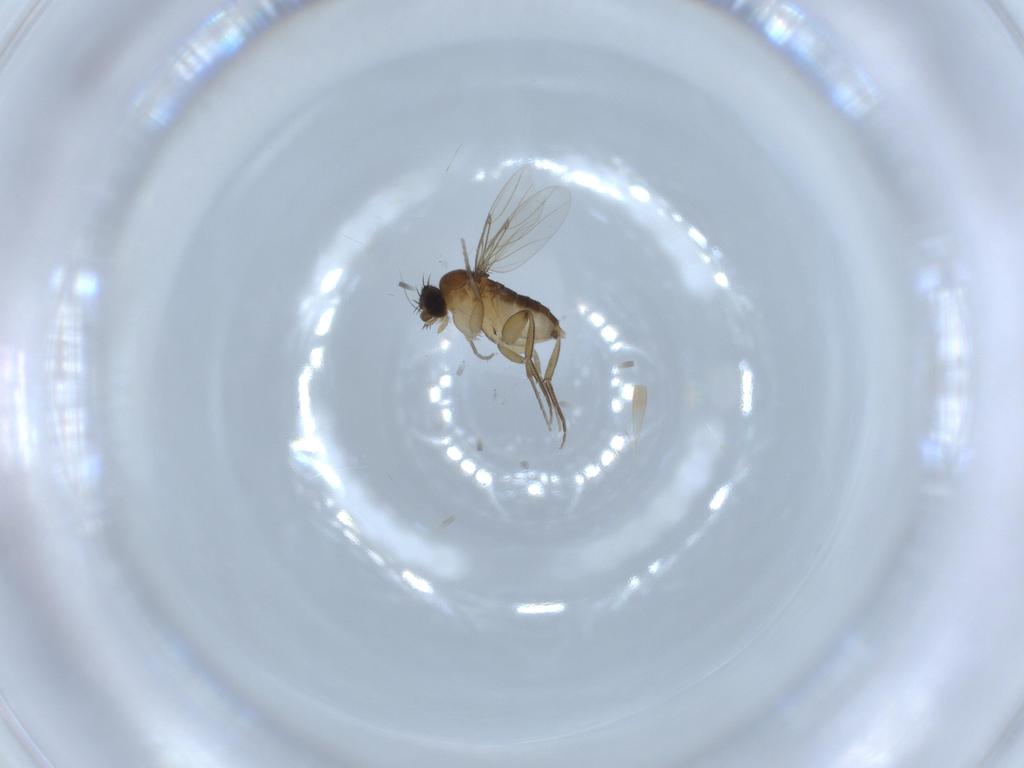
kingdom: Animalia
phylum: Arthropoda
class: Insecta
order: Diptera
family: Phoridae
